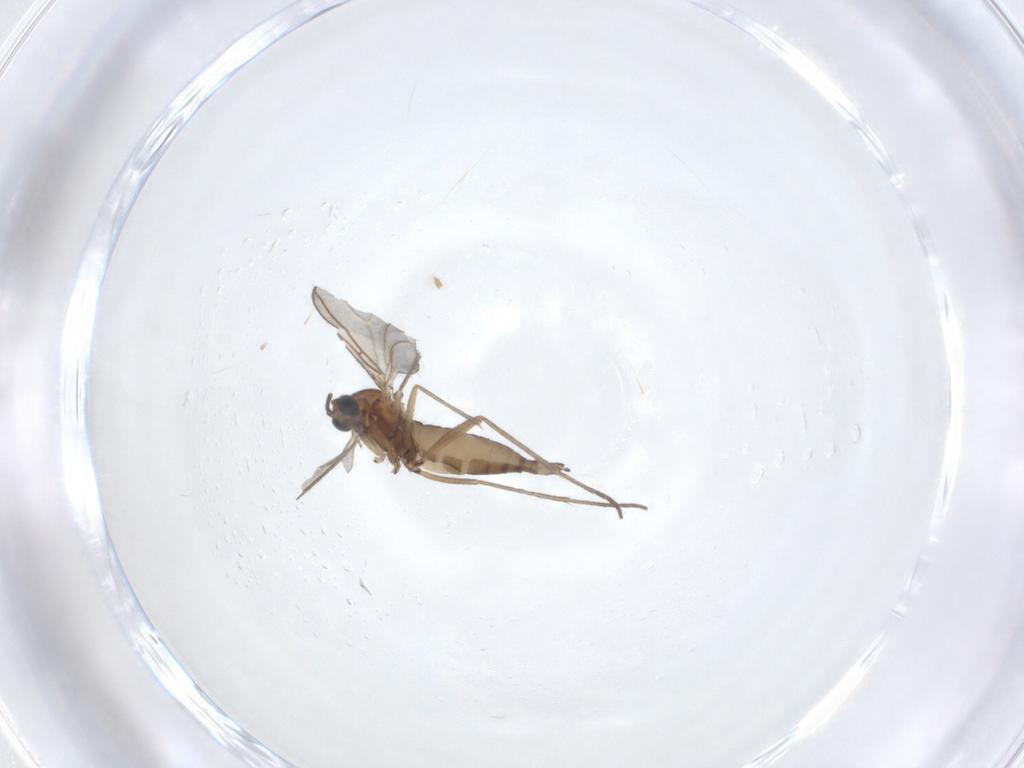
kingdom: Animalia
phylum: Arthropoda
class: Insecta
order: Diptera
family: Sciaridae
